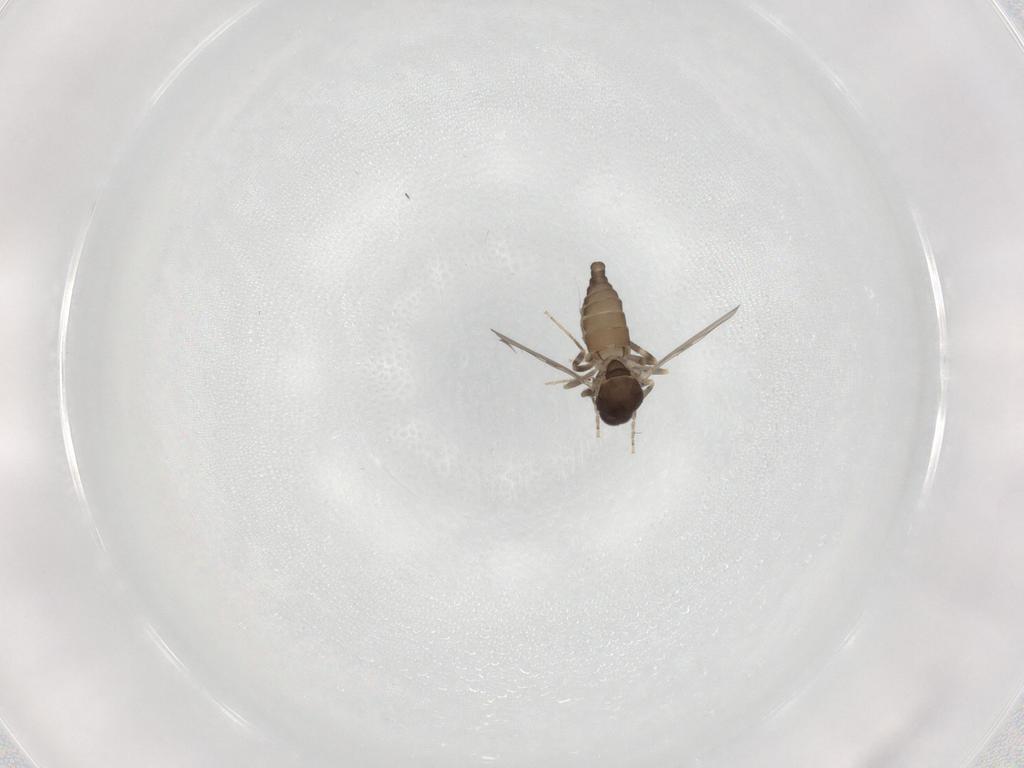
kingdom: Animalia
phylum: Arthropoda
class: Insecta
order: Diptera
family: Ceratopogonidae
